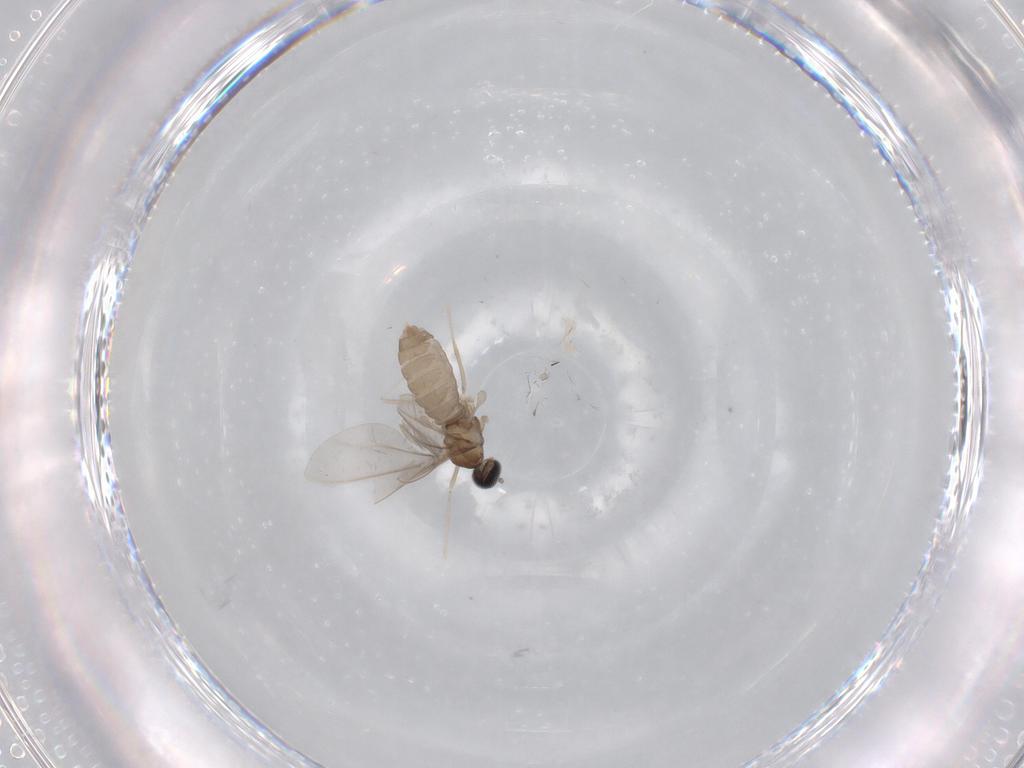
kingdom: Animalia
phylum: Arthropoda
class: Insecta
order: Diptera
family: Cecidomyiidae
